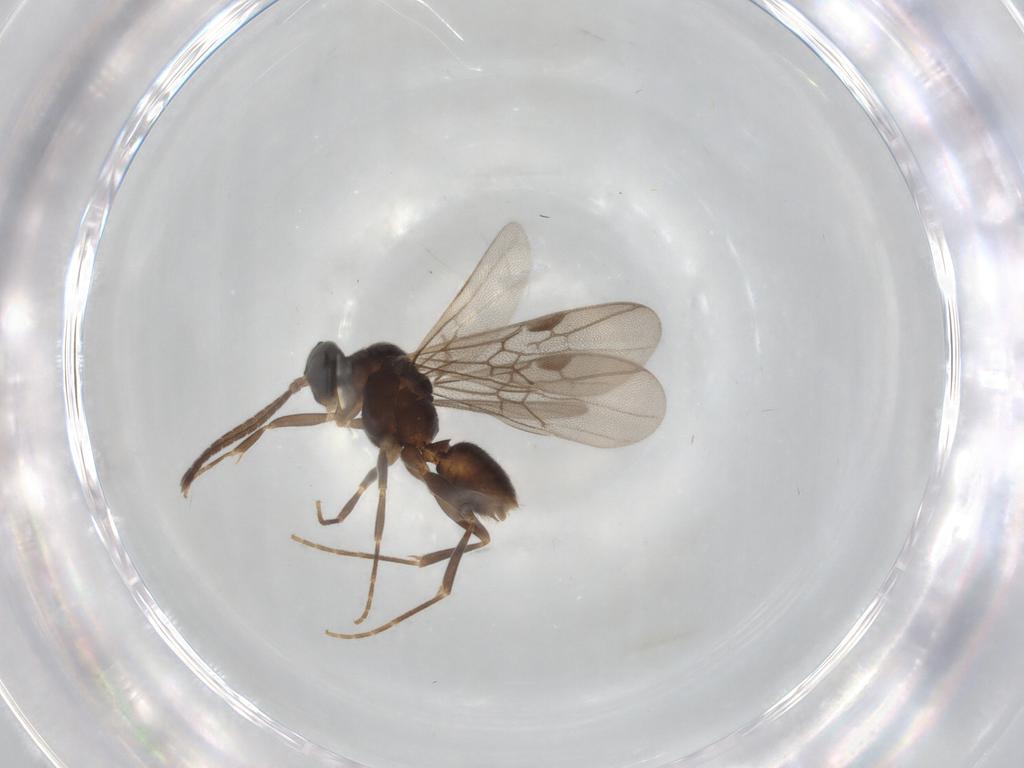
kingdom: Animalia
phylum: Arthropoda
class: Insecta
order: Hymenoptera
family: Formicidae
